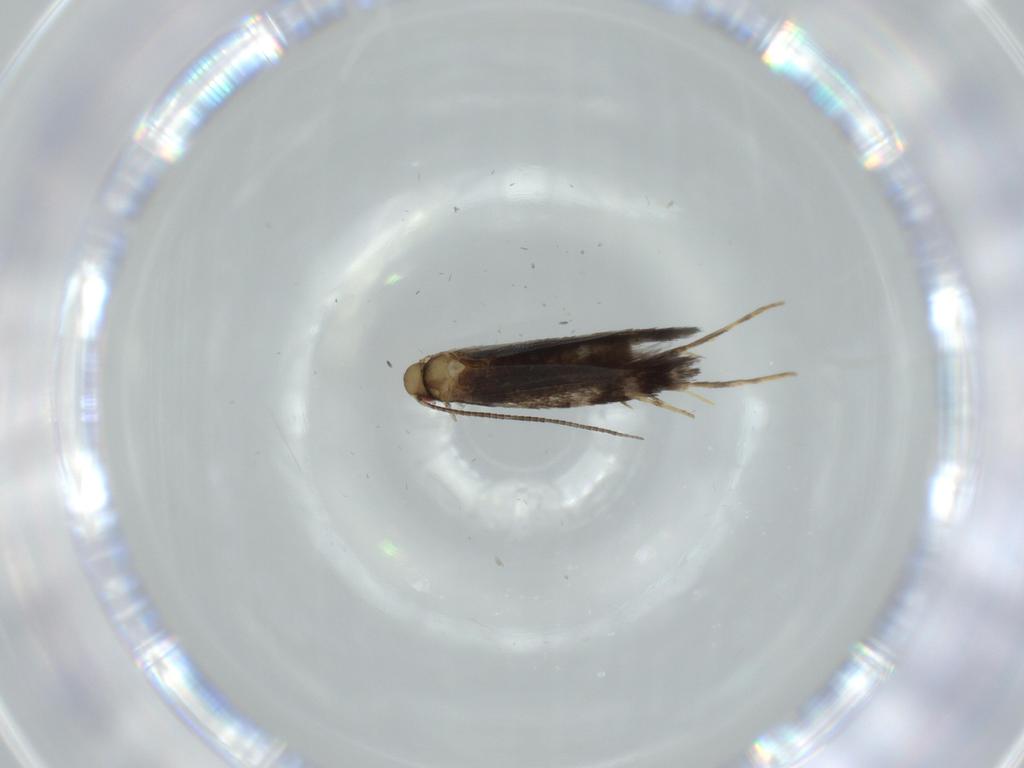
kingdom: Animalia
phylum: Arthropoda
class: Insecta
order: Lepidoptera
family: Gracillariidae
